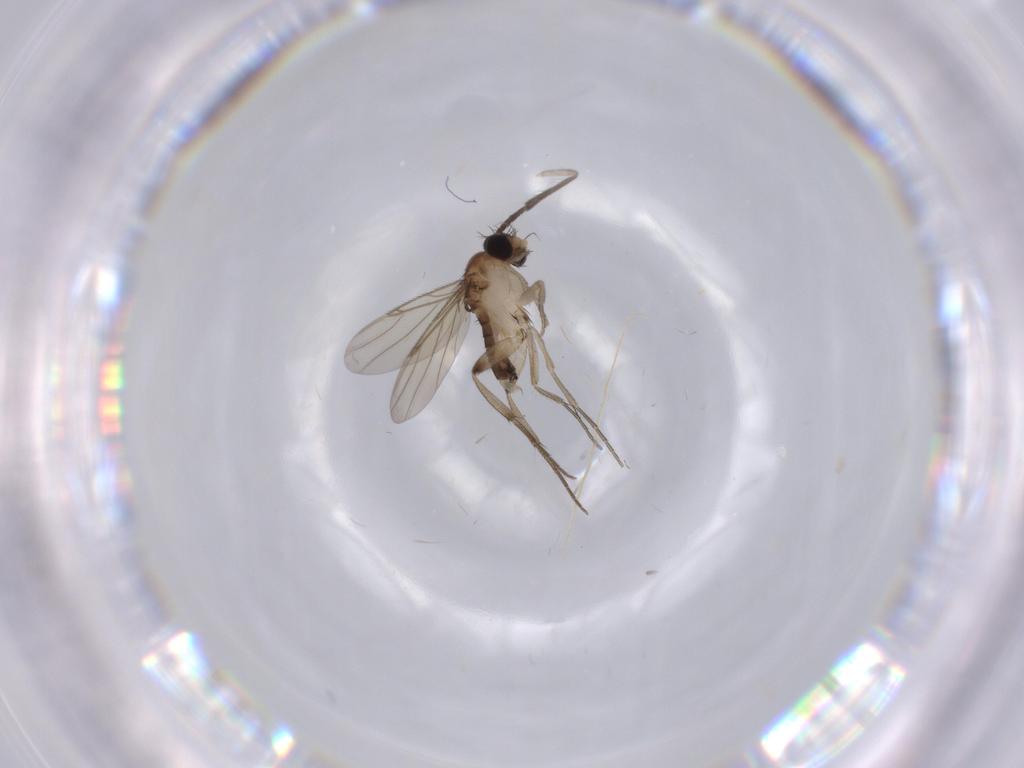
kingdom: Animalia
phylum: Arthropoda
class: Insecta
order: Diptera
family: Phoridae
